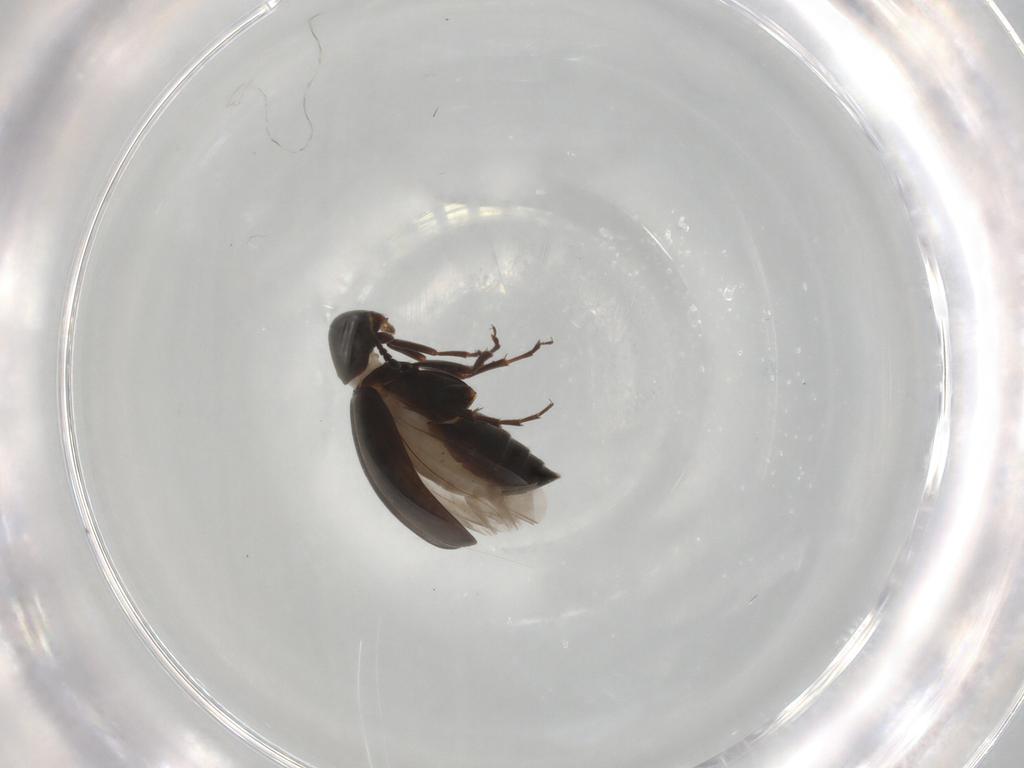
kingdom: Animalia
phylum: Arthropoda
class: Insecta
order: Coleoptera
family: Scraptiidae
